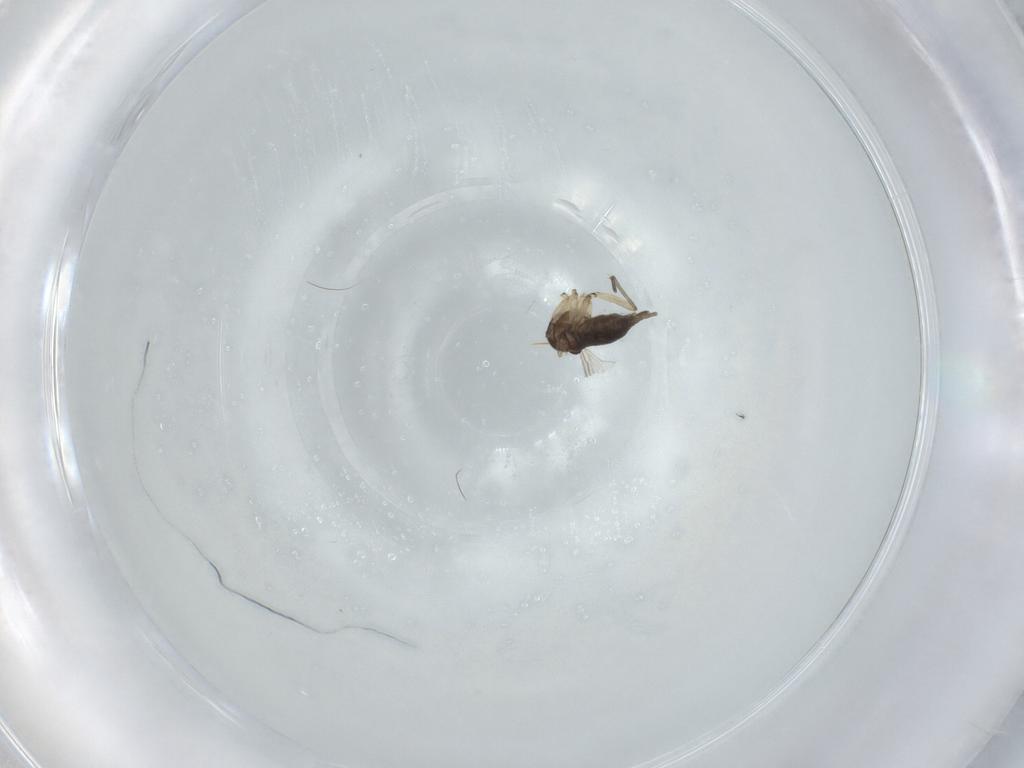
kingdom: Animalia
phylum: Arthropoda
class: Insecta
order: Diptera
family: Sciaridae
